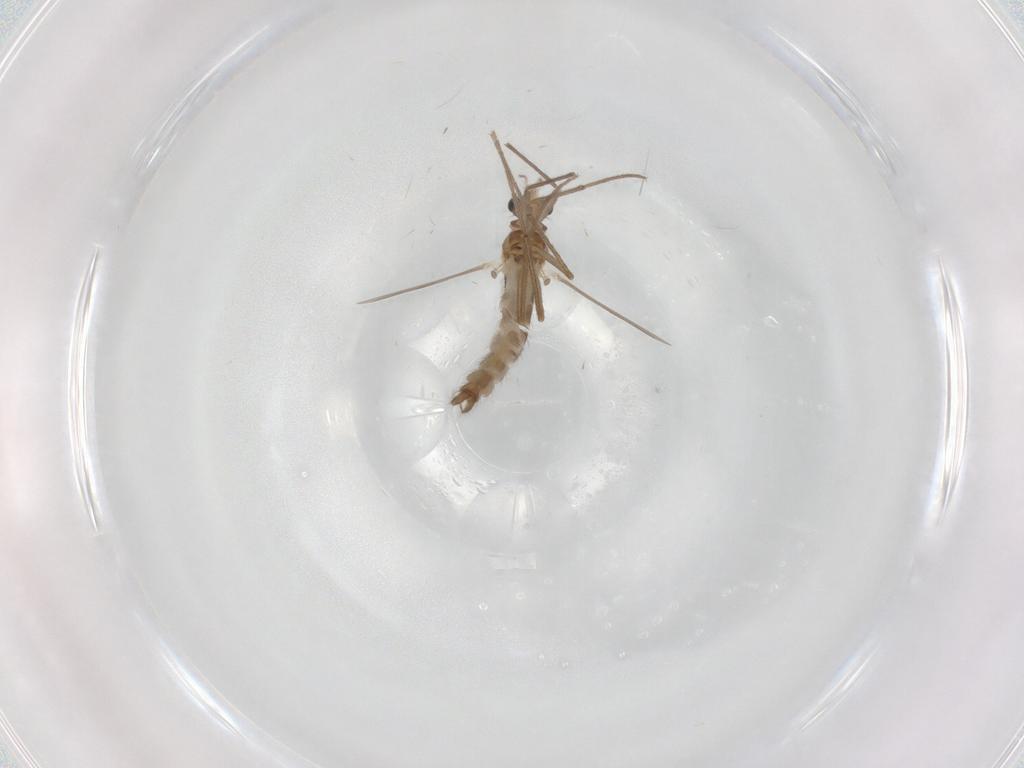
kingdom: Animalia
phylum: Arthropoda
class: Insecta
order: Diptera
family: Chironomidae
